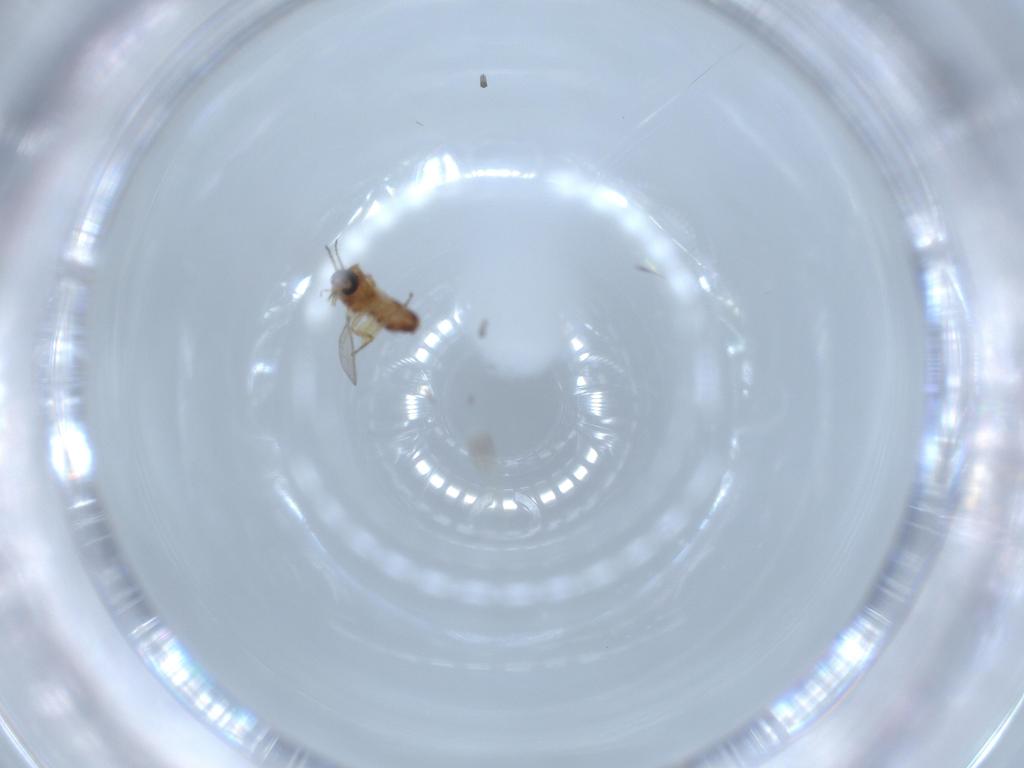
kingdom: Animalia
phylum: Arthropoda
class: Insecta
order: Diptera
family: Ceratopogonidae
